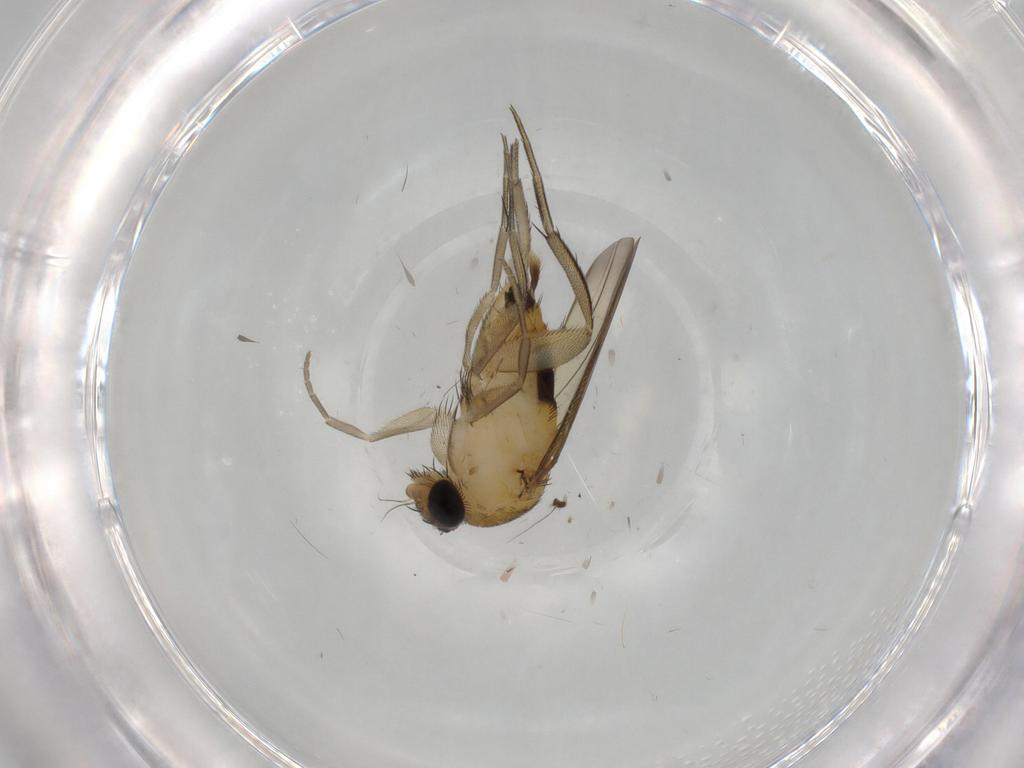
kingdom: Animalia
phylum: Arthropoda
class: Insecta
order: Diptera
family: Phoridae
